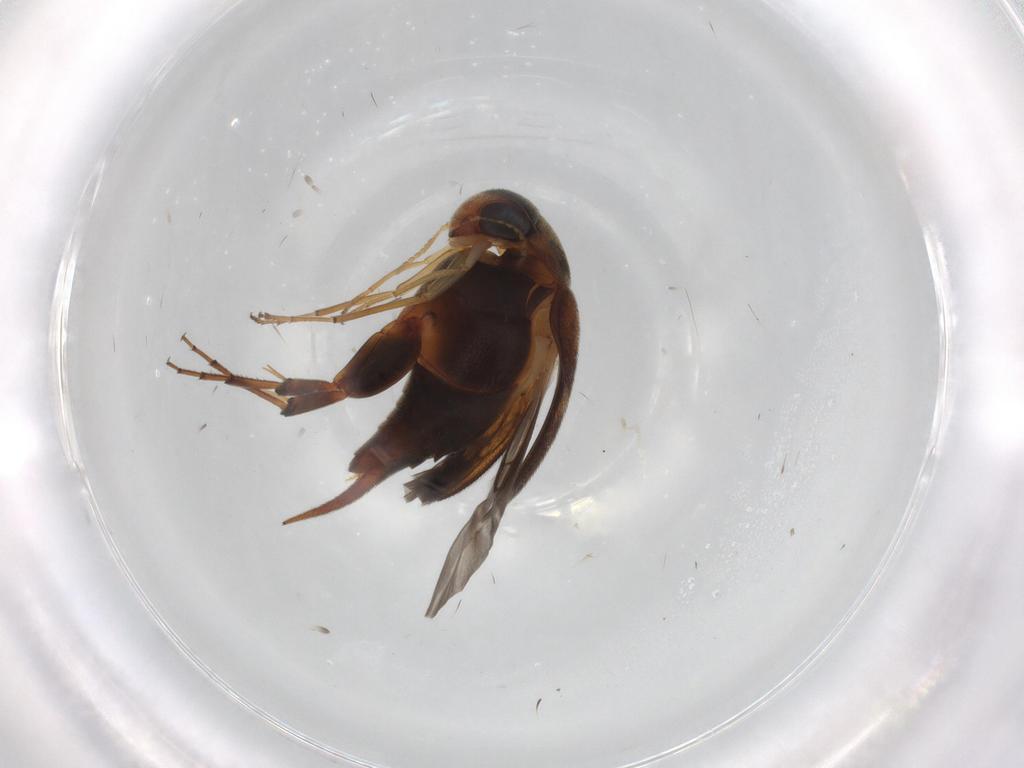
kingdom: Animalia
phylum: Arthropoda
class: Insecta
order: Coleoptera
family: Mordellidae
